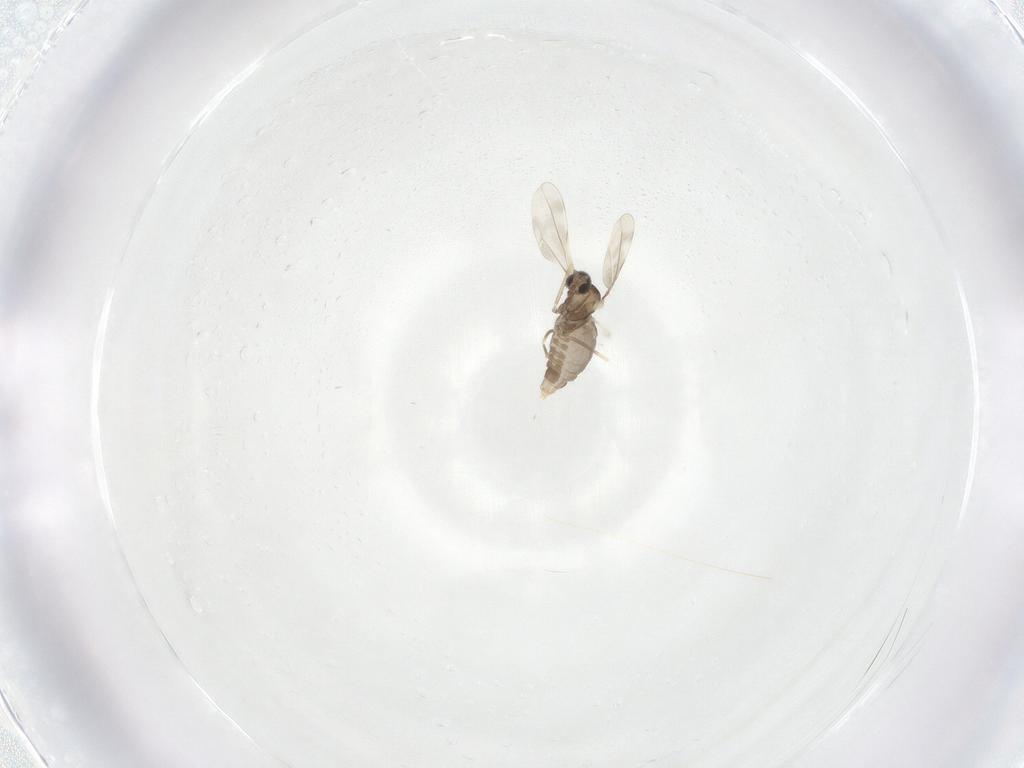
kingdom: Animalia
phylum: Arthropoda
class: Insecta
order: Diptera
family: Cecidomyiidae
